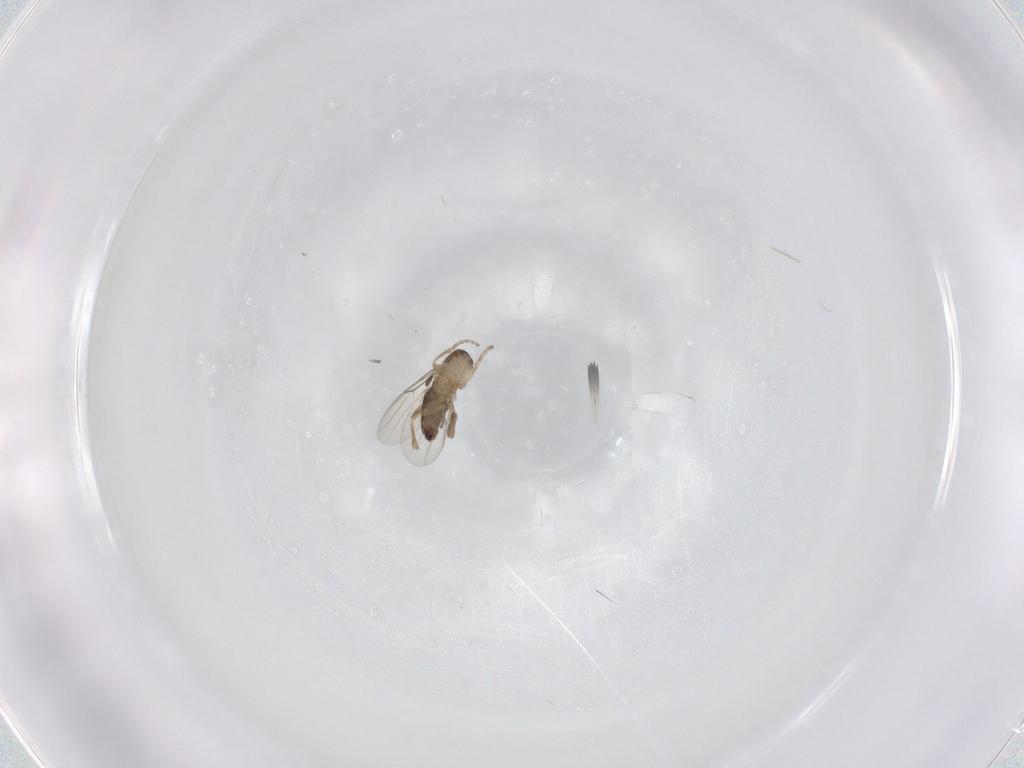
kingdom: Animalia
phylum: Arthropoda
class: Insecta
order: Diptera
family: Phoridae
